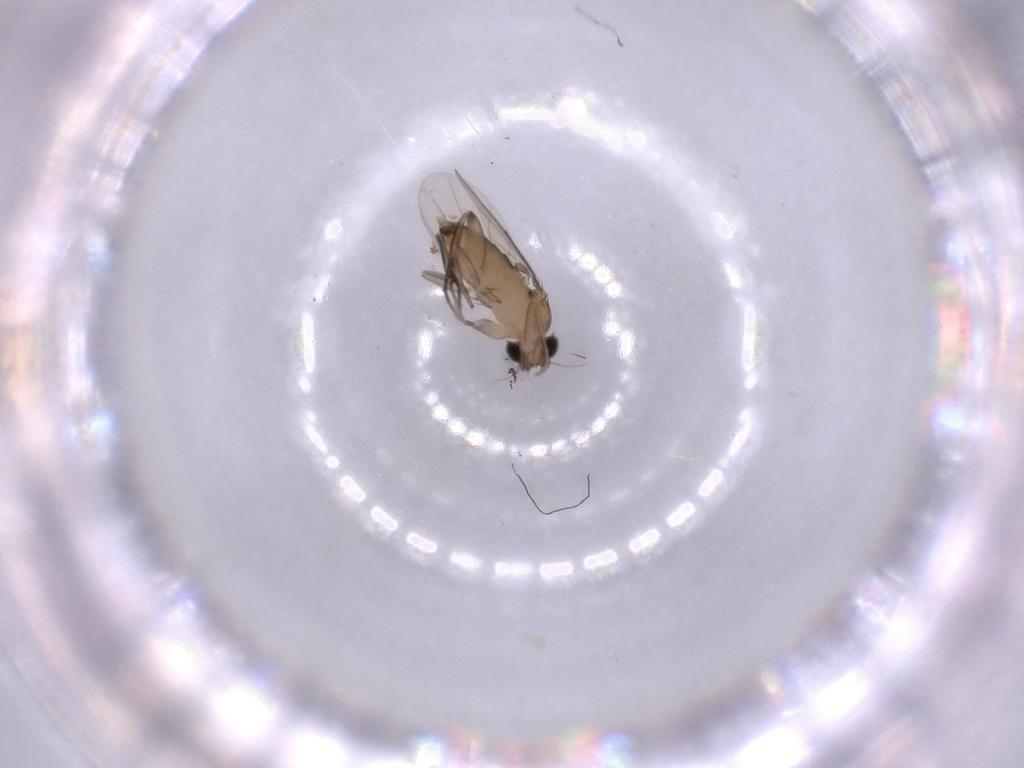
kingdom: Animalia
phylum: Arthropoda
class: Insecta
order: Diptera
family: Phoridae
